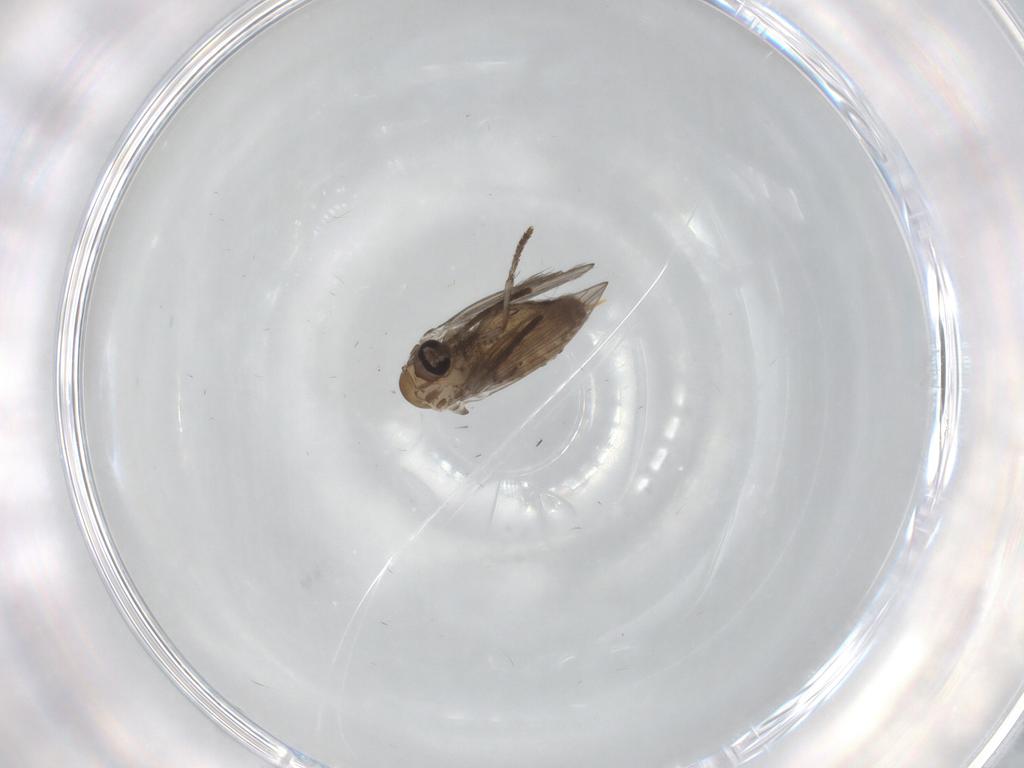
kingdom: Animalia
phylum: Arthropoda
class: Insecta
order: Diptera
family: Psychodidae
